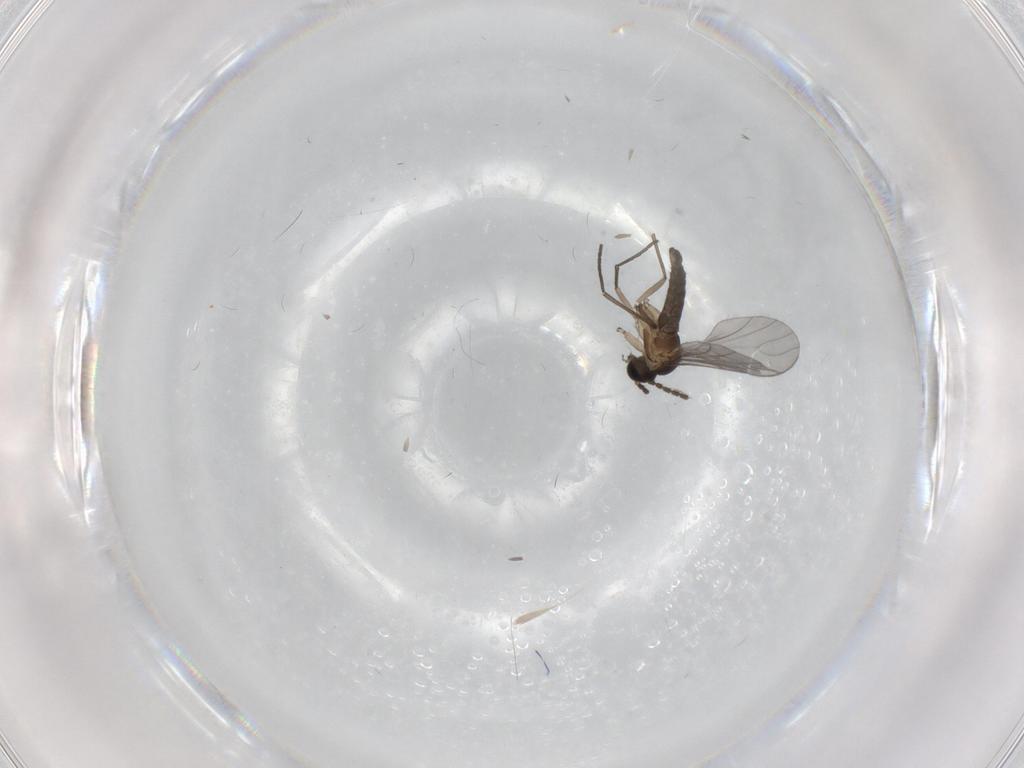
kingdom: Animalia
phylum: Arthropoda
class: Insecta
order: Diptera
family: Sciaridae
